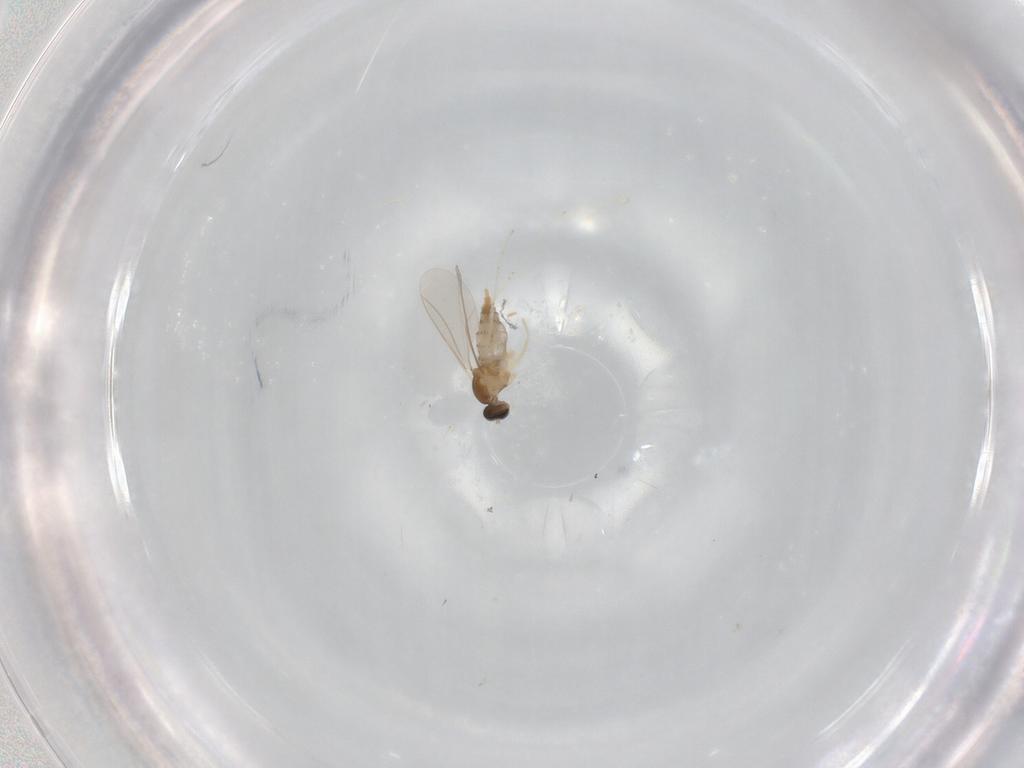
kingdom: Animalia
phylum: Arthropoda
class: Insecta
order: Diptera
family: Cecidomyiidae
